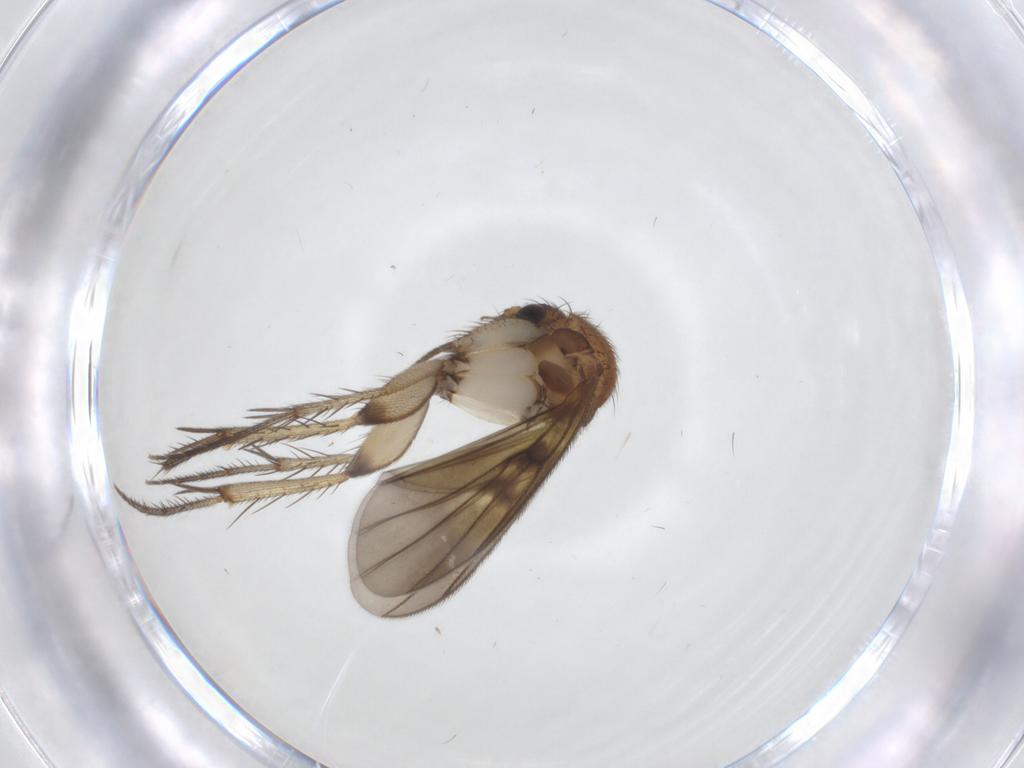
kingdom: Animalia
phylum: Arthropoda
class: Insecta
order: Diptera
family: Mycetophilidae
